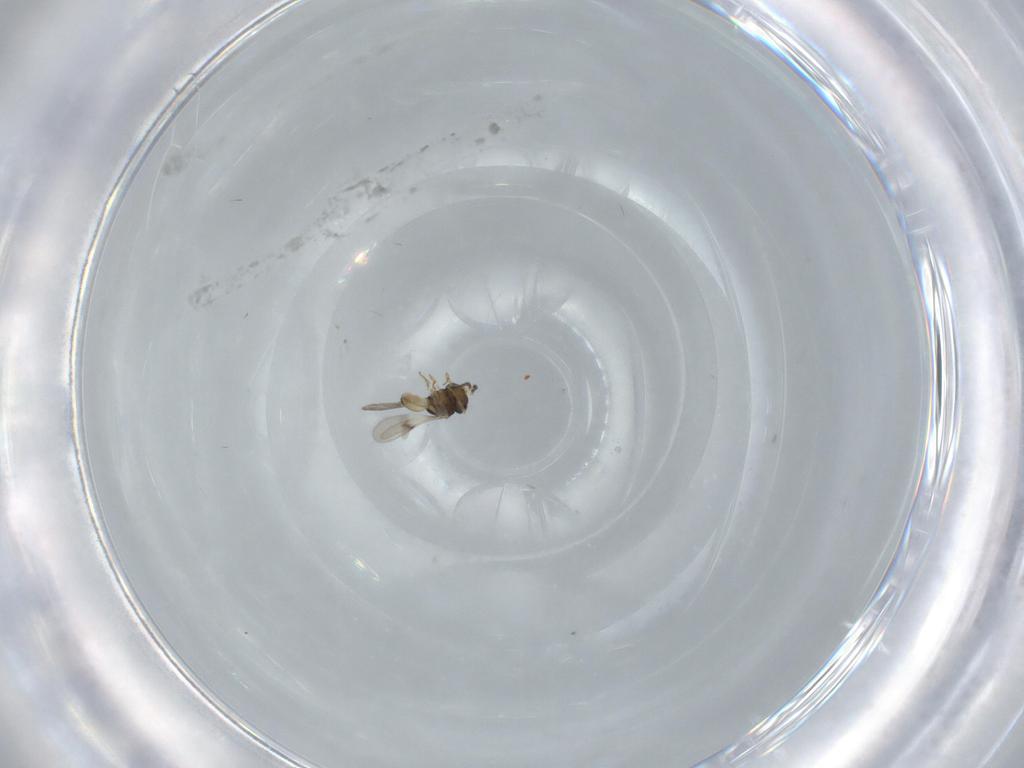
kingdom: Animalia
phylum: Arthropoda
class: Insecta
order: Hymenoptera
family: Scelionidae
